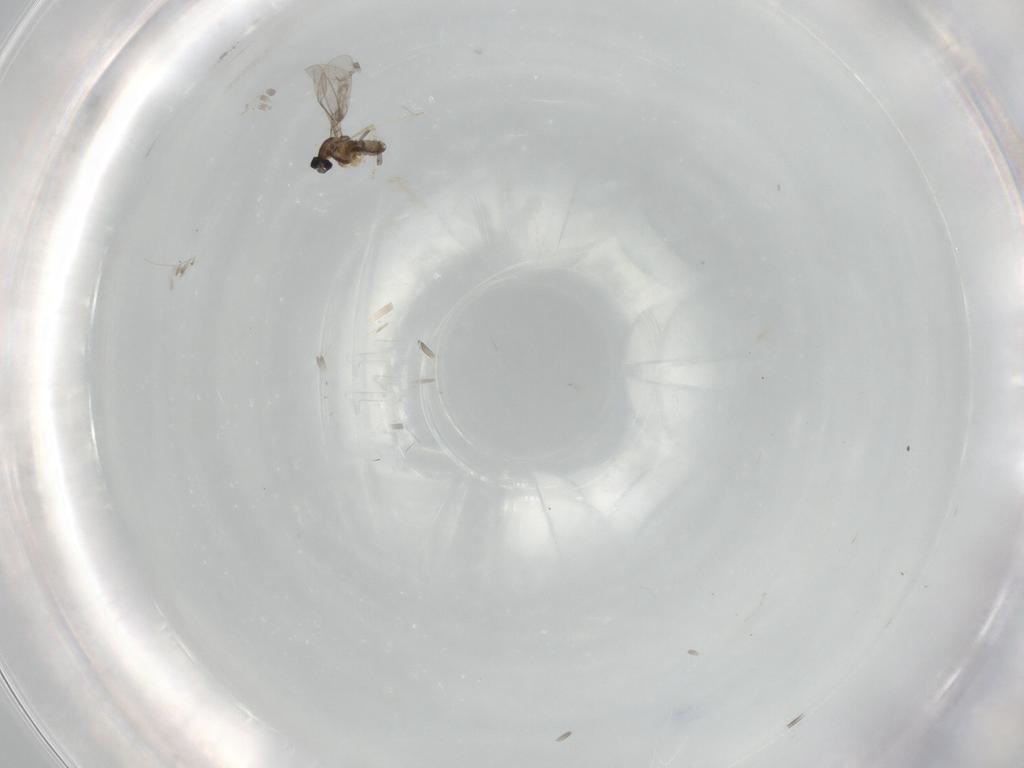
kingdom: Animalia
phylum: Arthropoda
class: Insecta
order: Diptera
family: Cecidomyiidae
